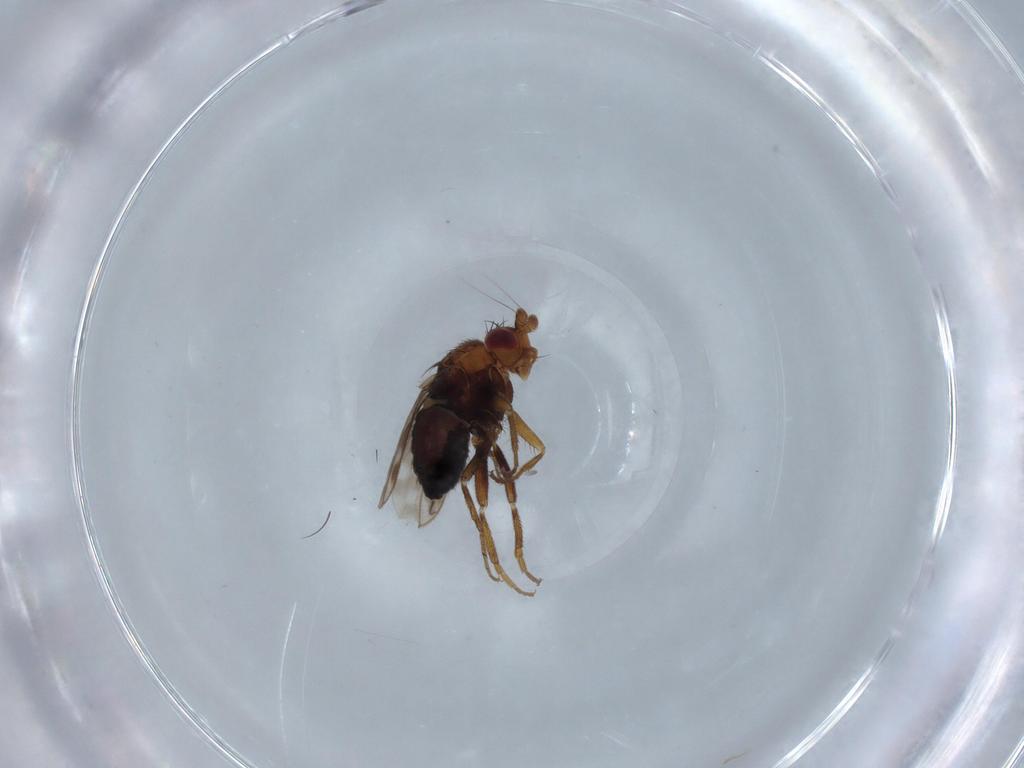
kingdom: Animalia
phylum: Arthropoda
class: Insecta
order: Diptera
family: Sphaeroceridae
